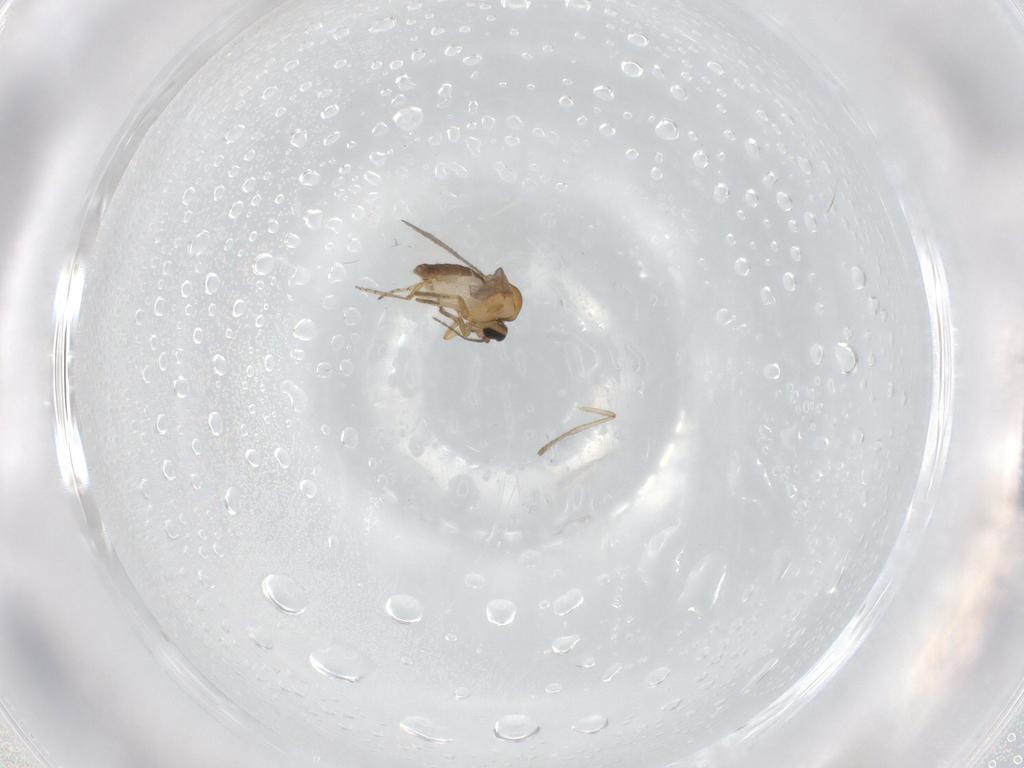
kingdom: Animalia
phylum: Arthropoda
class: Insecta
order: Diptera
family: Psychodidae
